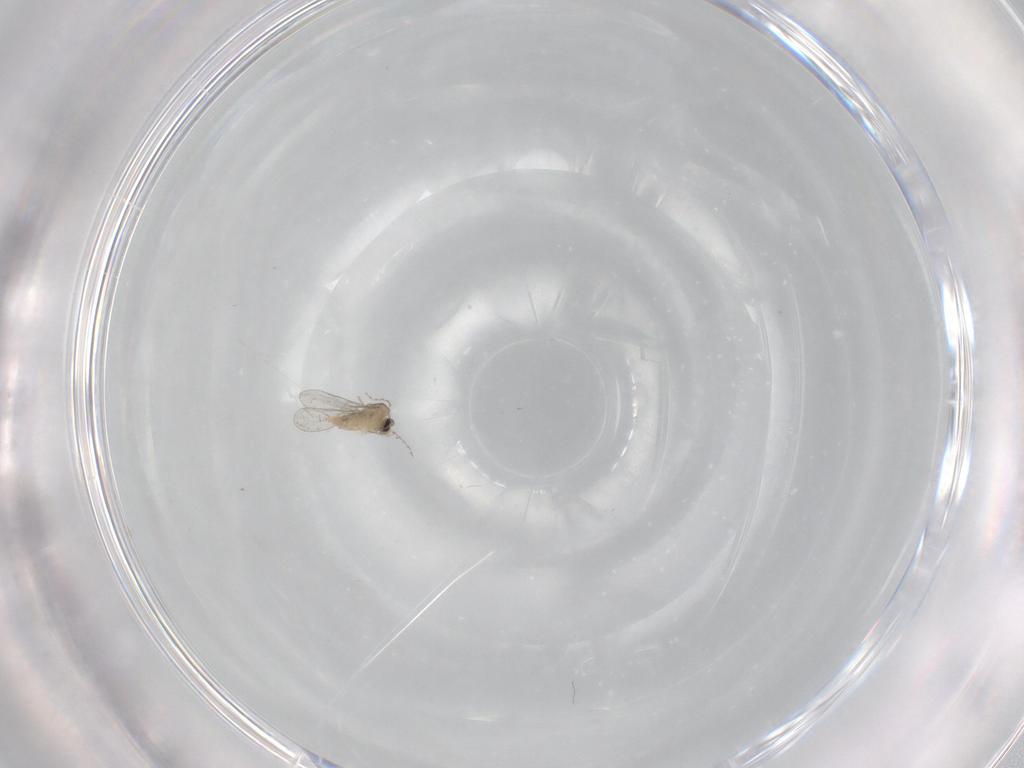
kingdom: Animalia
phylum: Arthropoda
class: Insecta
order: Diptera
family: Cecidomyiidae
